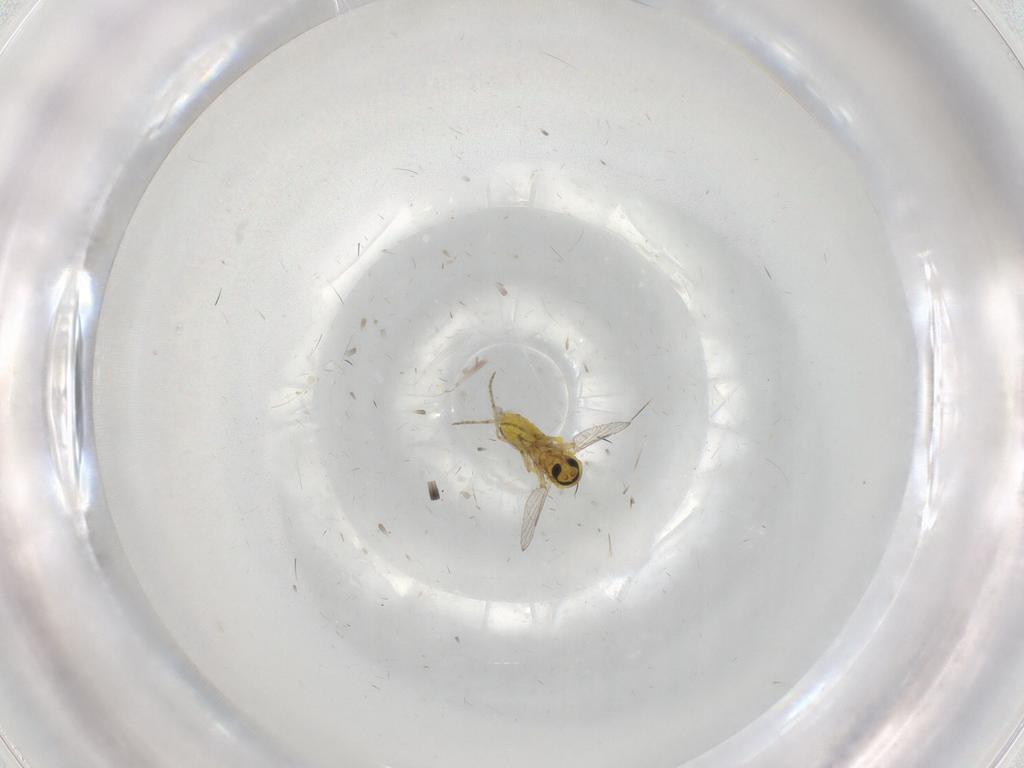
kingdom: Animalia
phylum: Arthropoda
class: Insecta
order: Diptera
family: Ceratopogonidae
